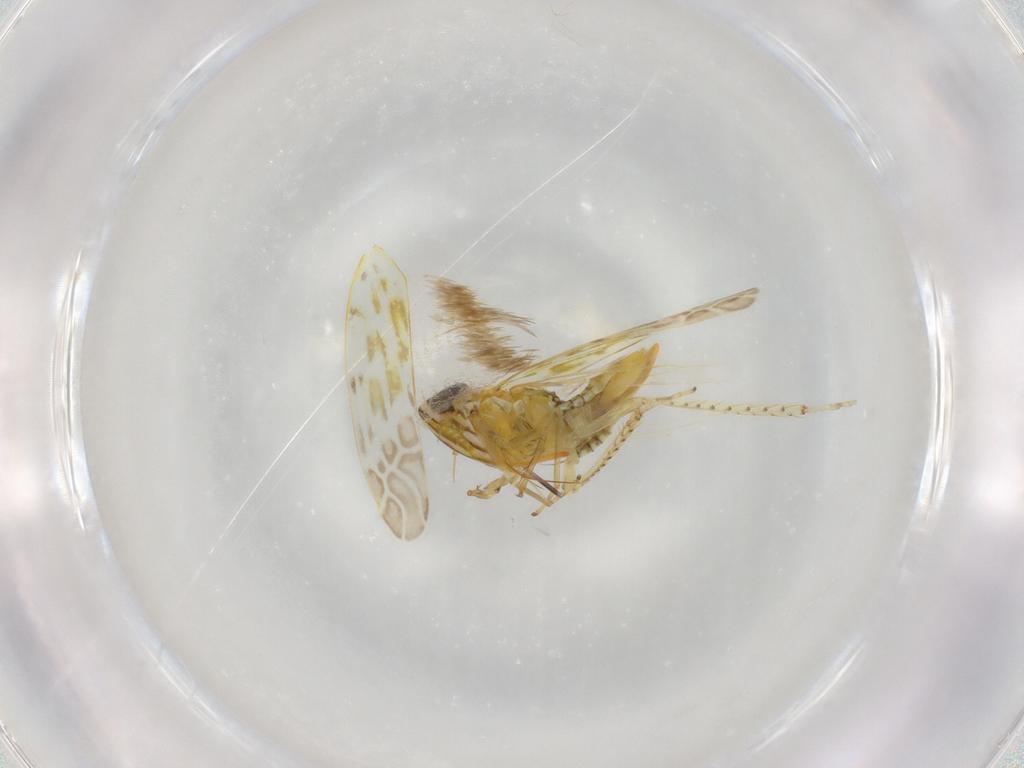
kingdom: Animalia
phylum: Arthropoda
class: Insecta
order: Hemiptera
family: Cicadellidae
